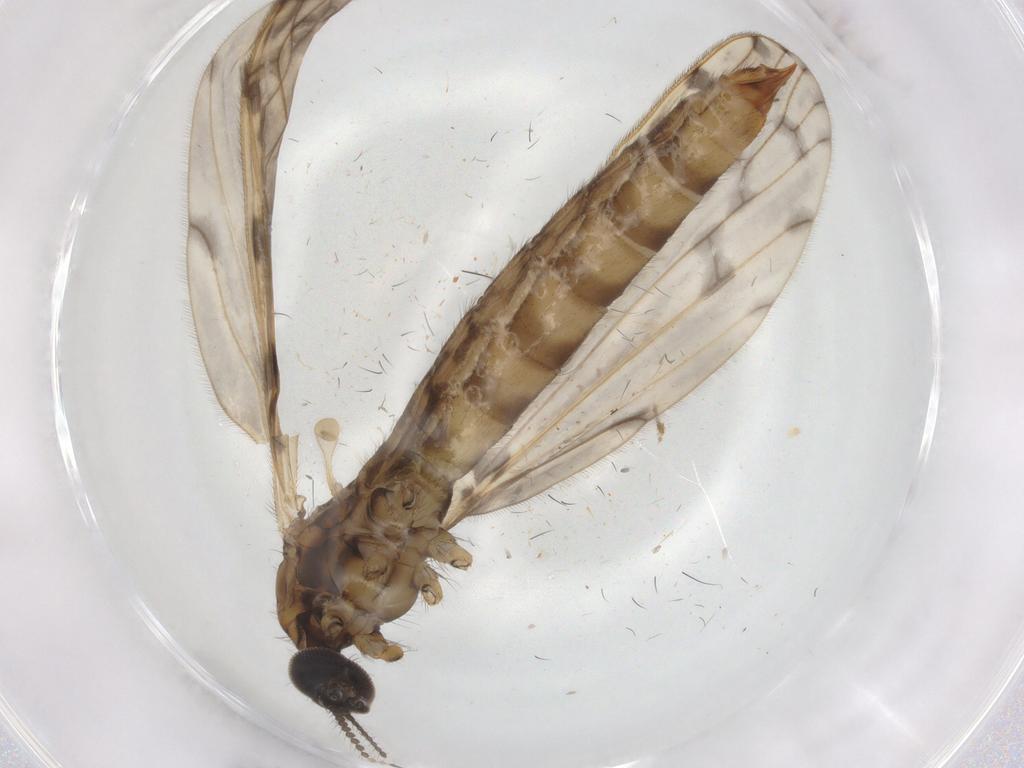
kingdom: Animalia
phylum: Arthropoda
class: Insecta
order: Diptera
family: Limoniidae
